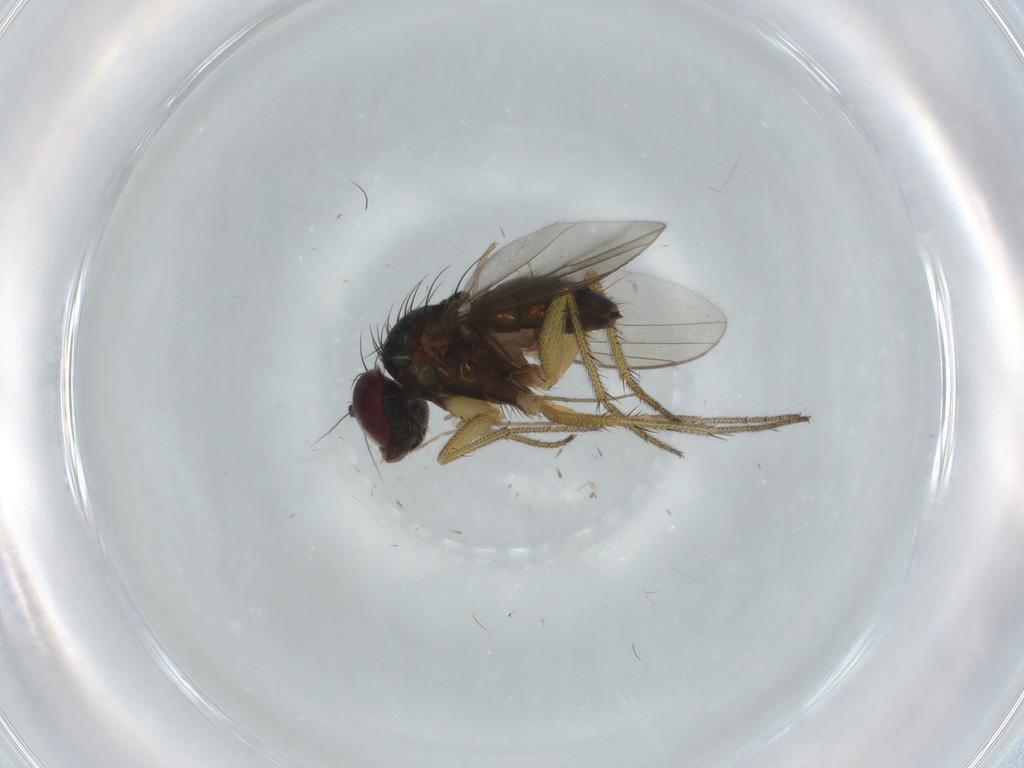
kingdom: Animalia
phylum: Arthropoda
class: Insecta
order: Diptera
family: Dolichopodidae
